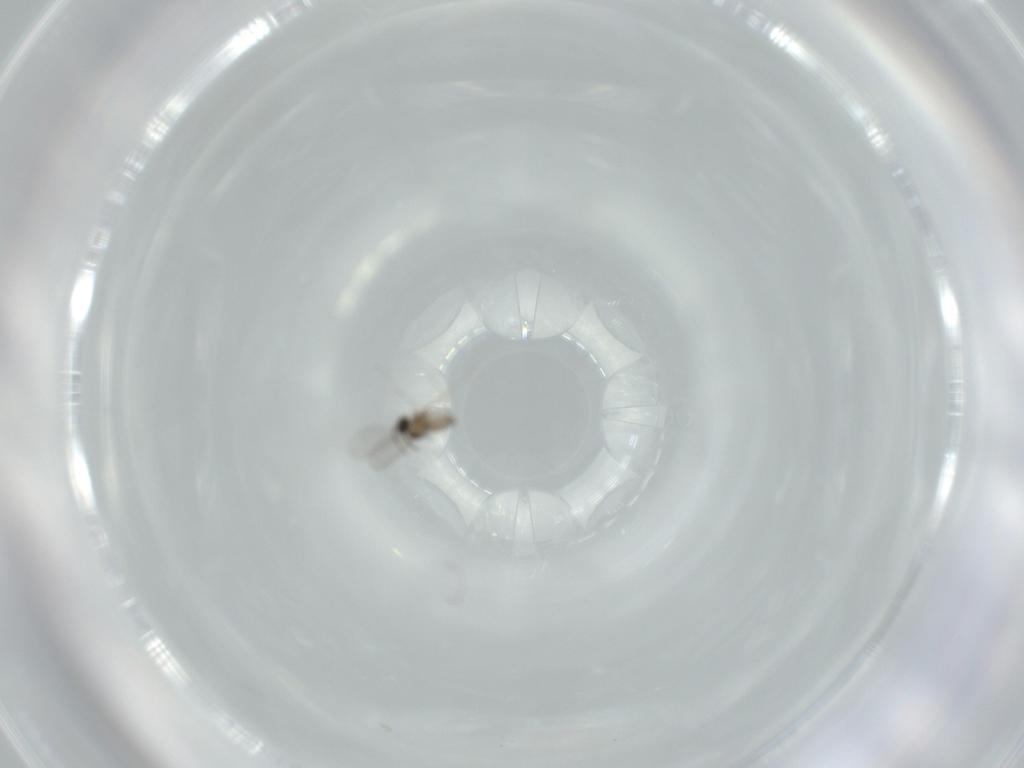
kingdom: Animalia
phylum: Arthropoda
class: Insecta
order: Diptera
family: Cecidomyiidae
